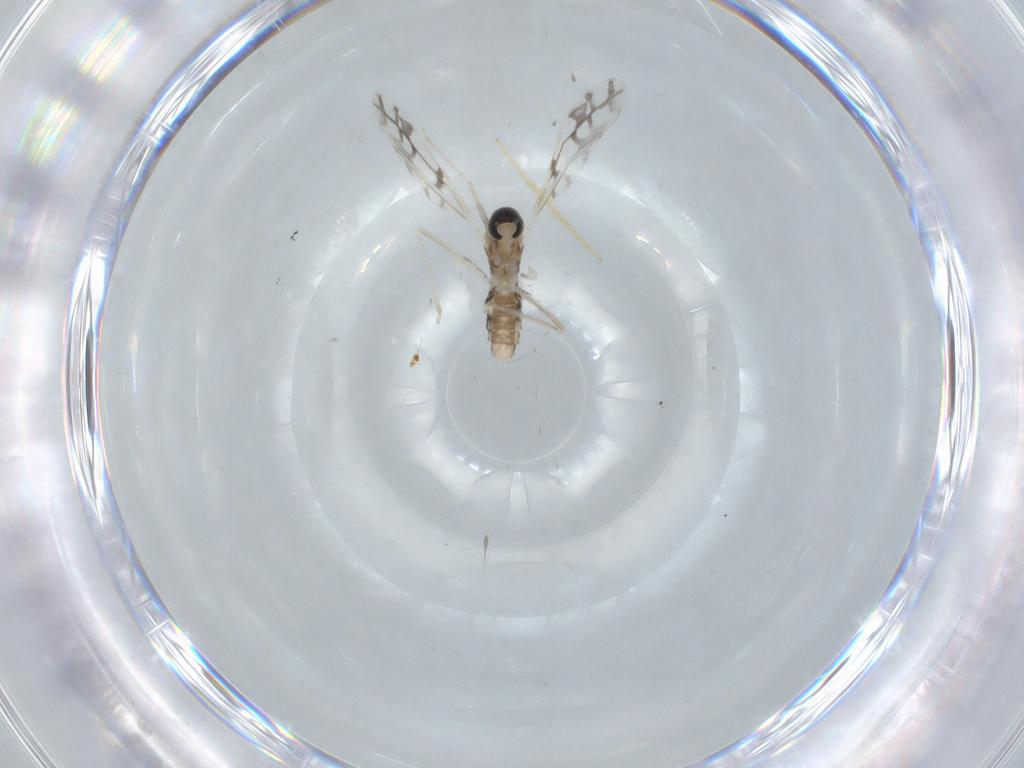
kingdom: Animalia
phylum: Arthropoda
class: Insecta
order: Diptera
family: Cecidomyiidae
